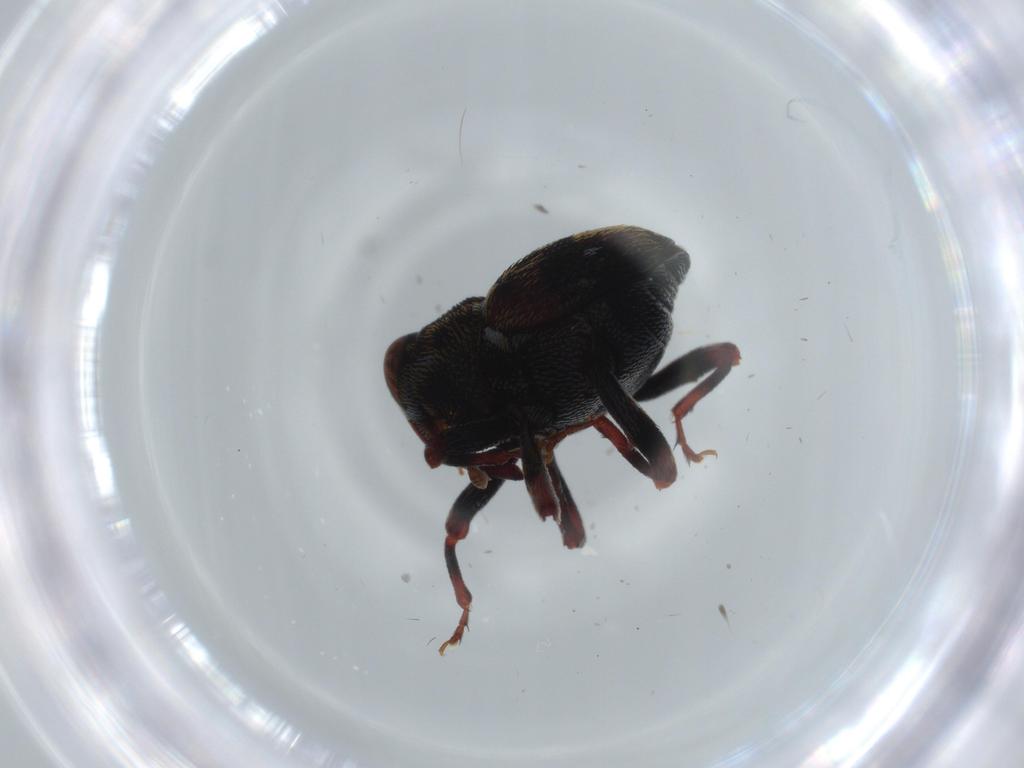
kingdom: Animalia
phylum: Arthropoda
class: Insecta
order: Coleoptera
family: Curculionidae
